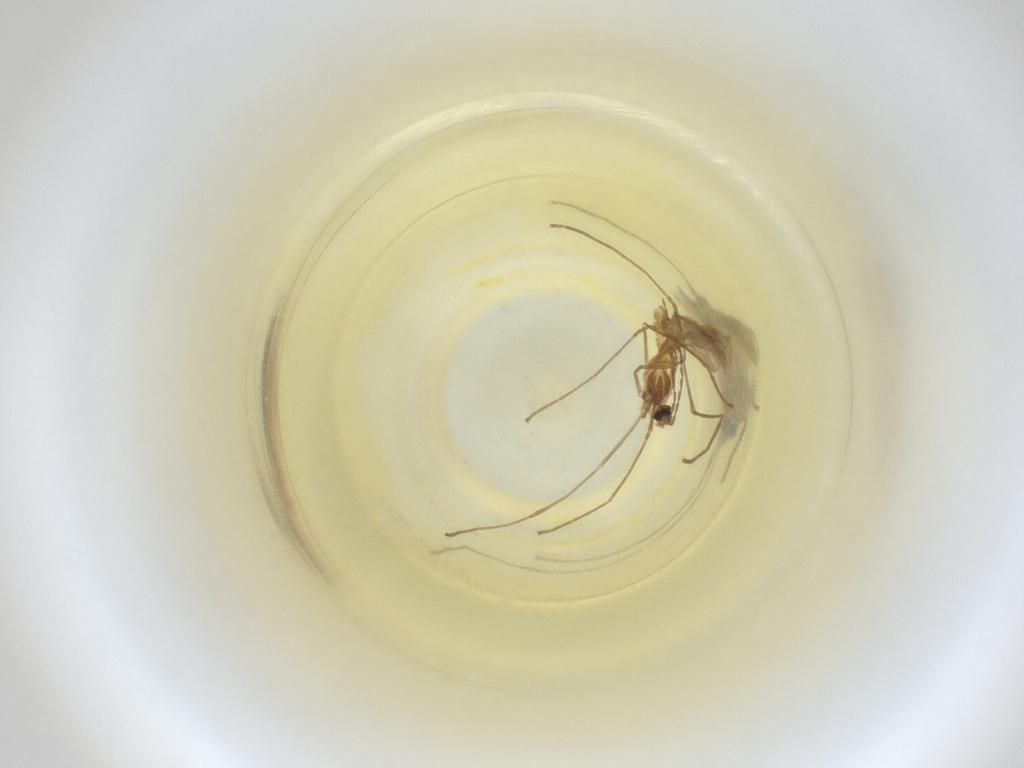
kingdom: Animalia
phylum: Arthropoda
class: Insecta
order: Diptera
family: Cecidomyiidae
